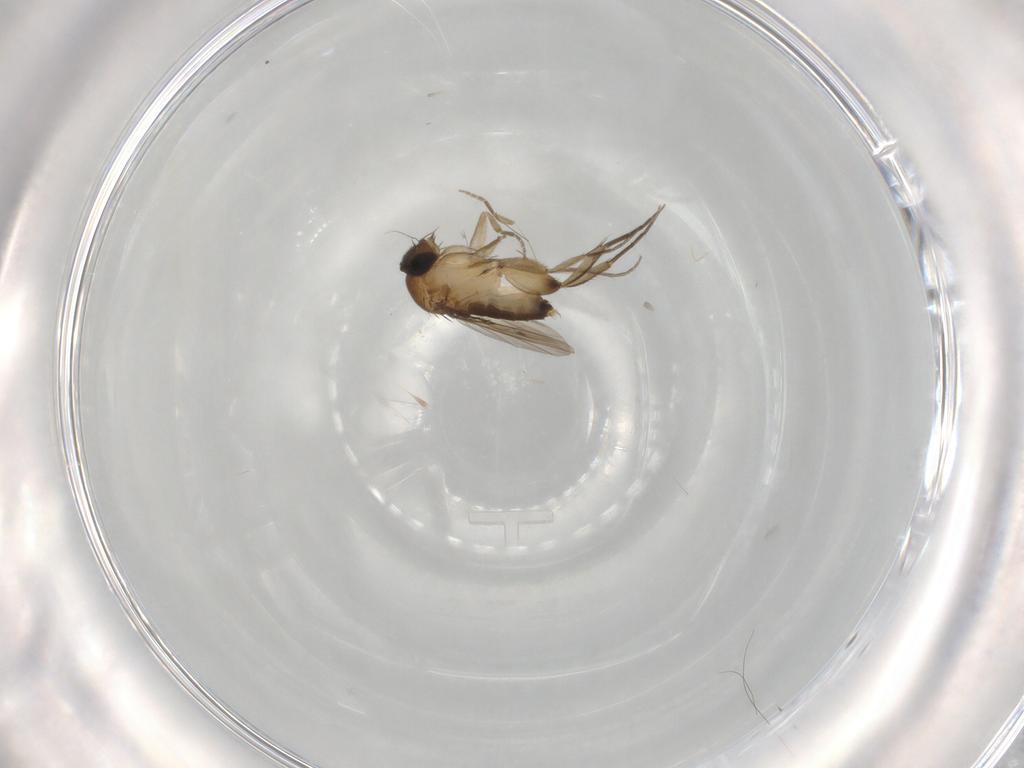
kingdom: Animalia
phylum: Arthropoda
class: Insecta
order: Diptera
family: Phoridae
